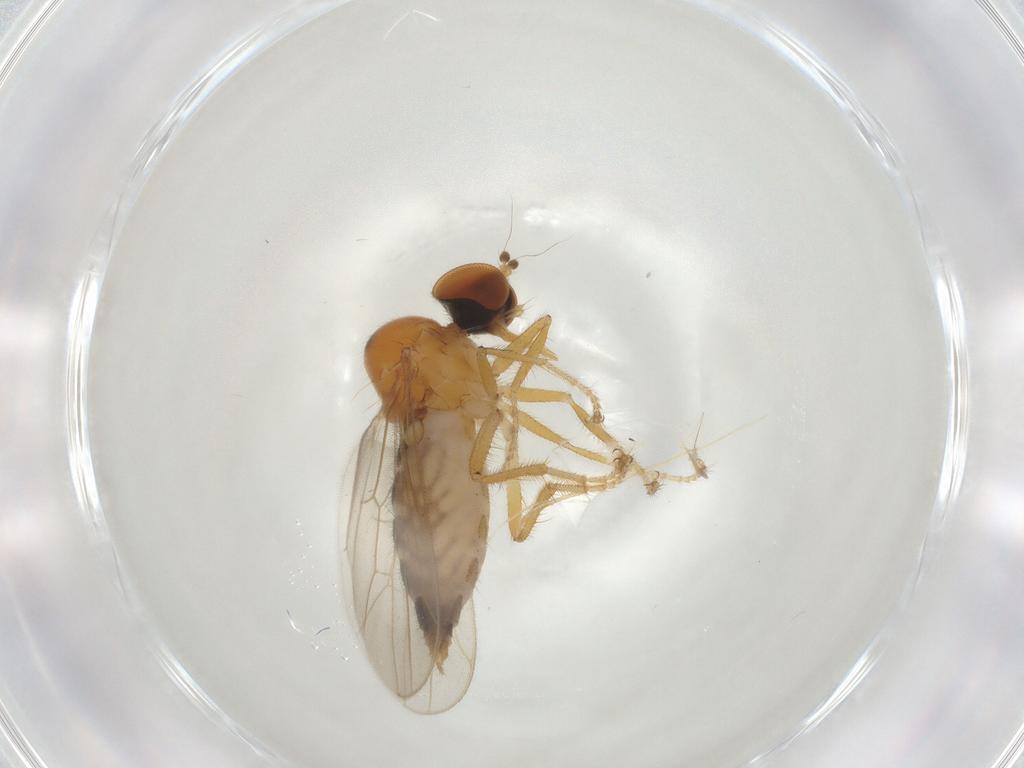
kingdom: Animalia
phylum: Arthropoda
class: Insecta
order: Diptera
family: Hybotidae
